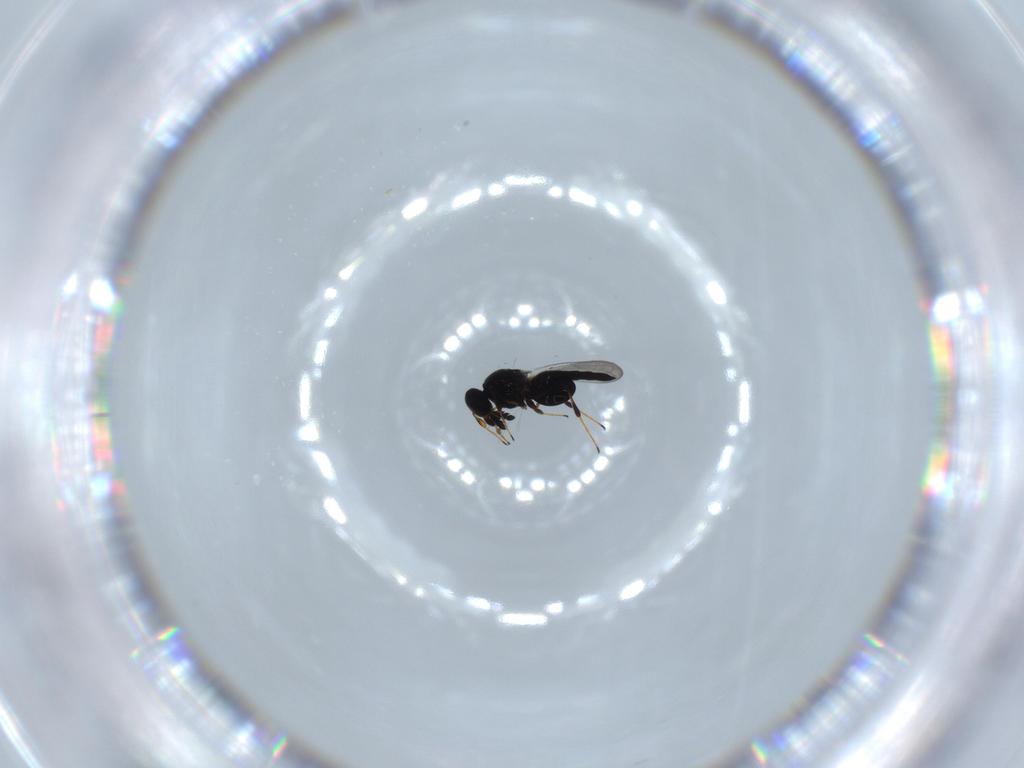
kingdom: Animalia
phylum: Arthropoda
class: Insecta
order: Hymenoptera
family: Platygastridae
